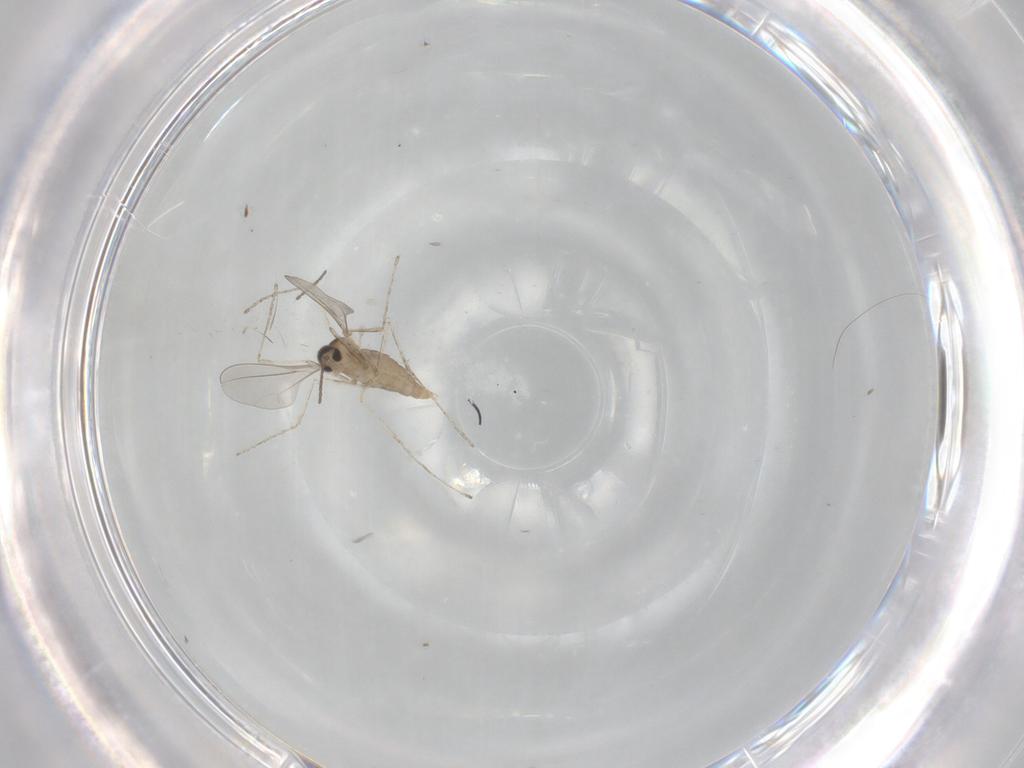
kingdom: Animalia
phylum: Arthropoda
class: Insecta
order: Diptera
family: Cecidomyiidae
